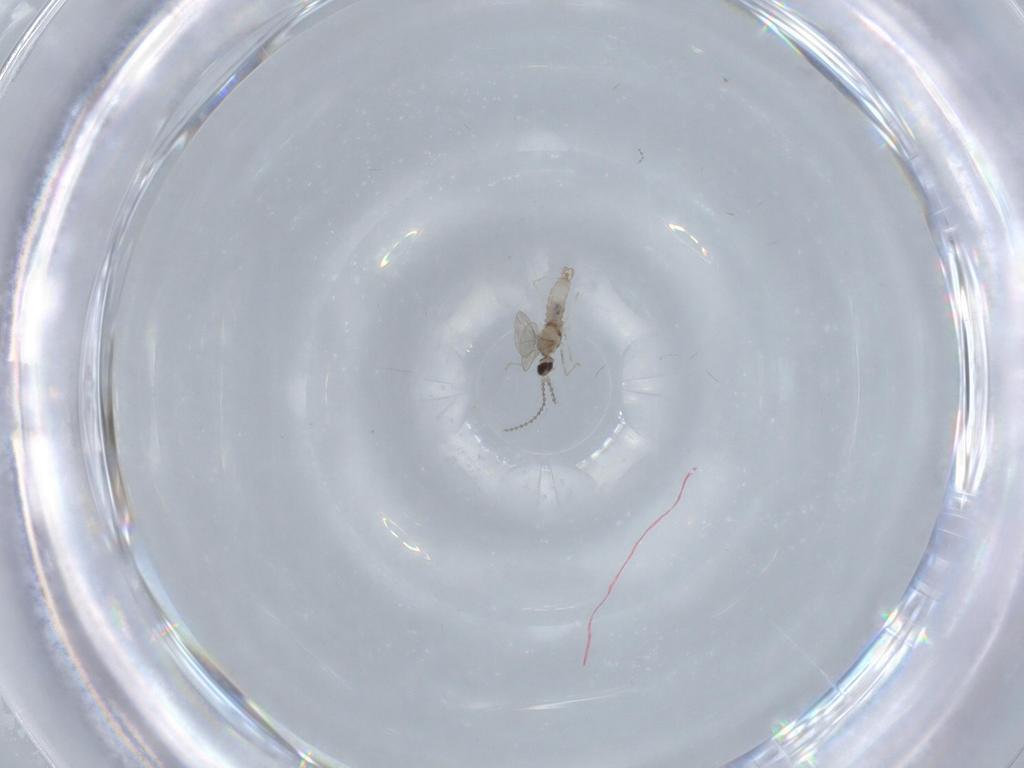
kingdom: Animalia
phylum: Arthropoda
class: Insecta
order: Diptera
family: Cecidomyiidae
